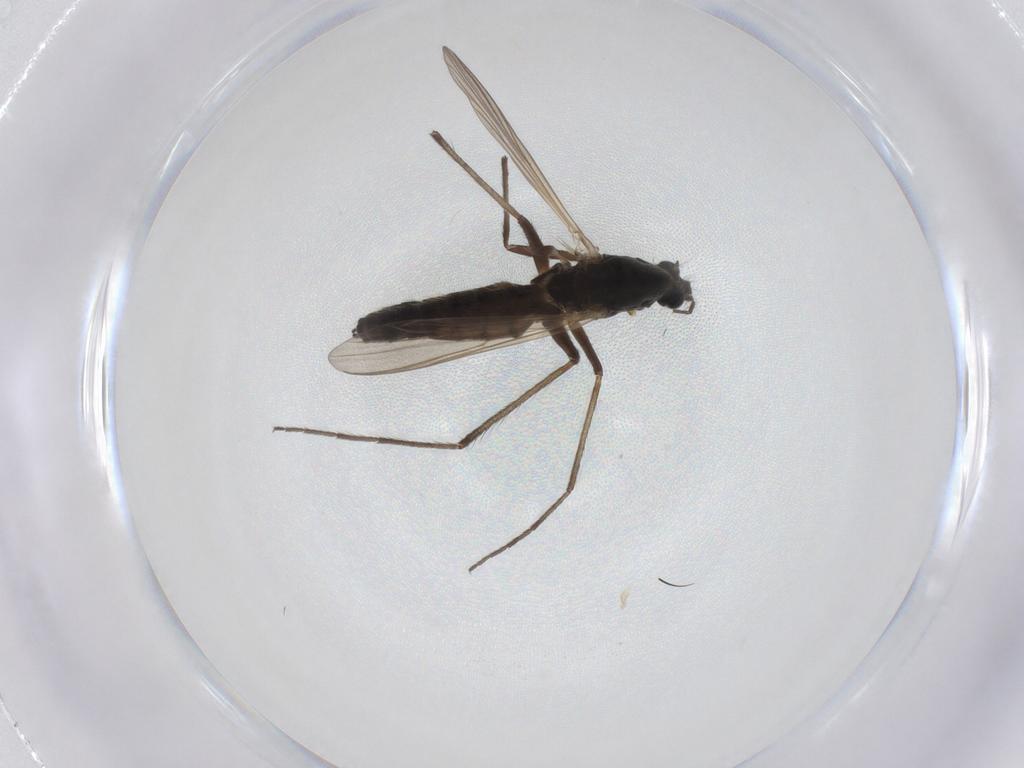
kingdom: Animalia
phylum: Arthropoda
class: Insecta
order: Diptera
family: Chironomidae
